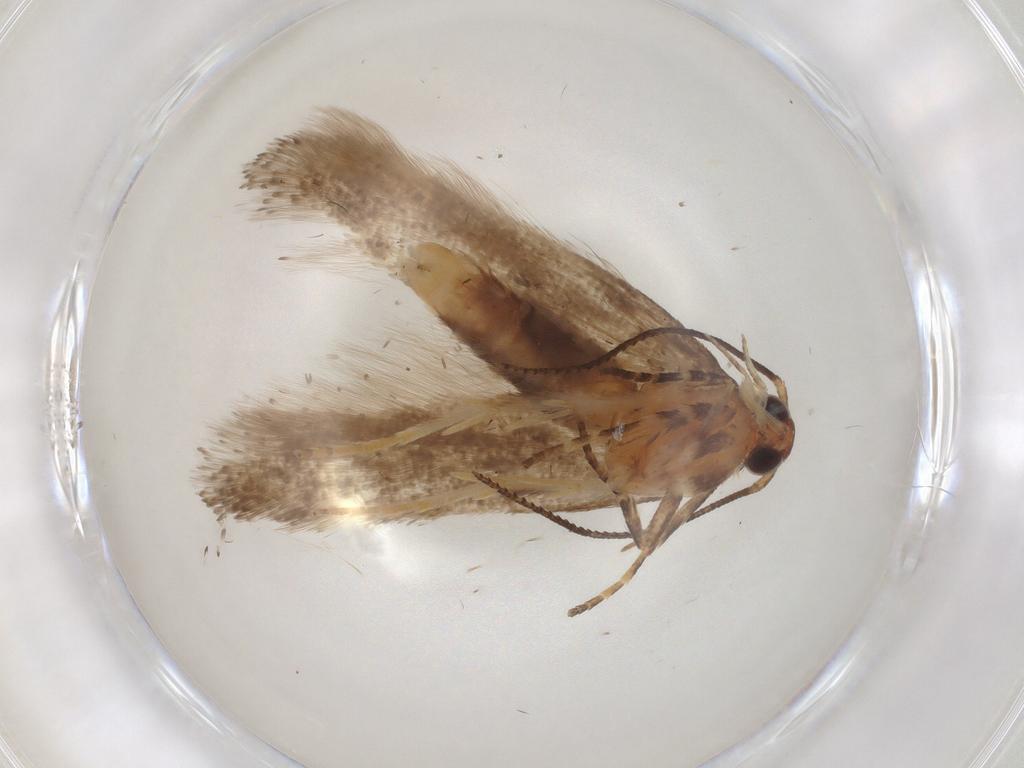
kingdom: Animalia
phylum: Arthropoda
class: Insecta
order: Lepidoptera
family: Gelechiidae
